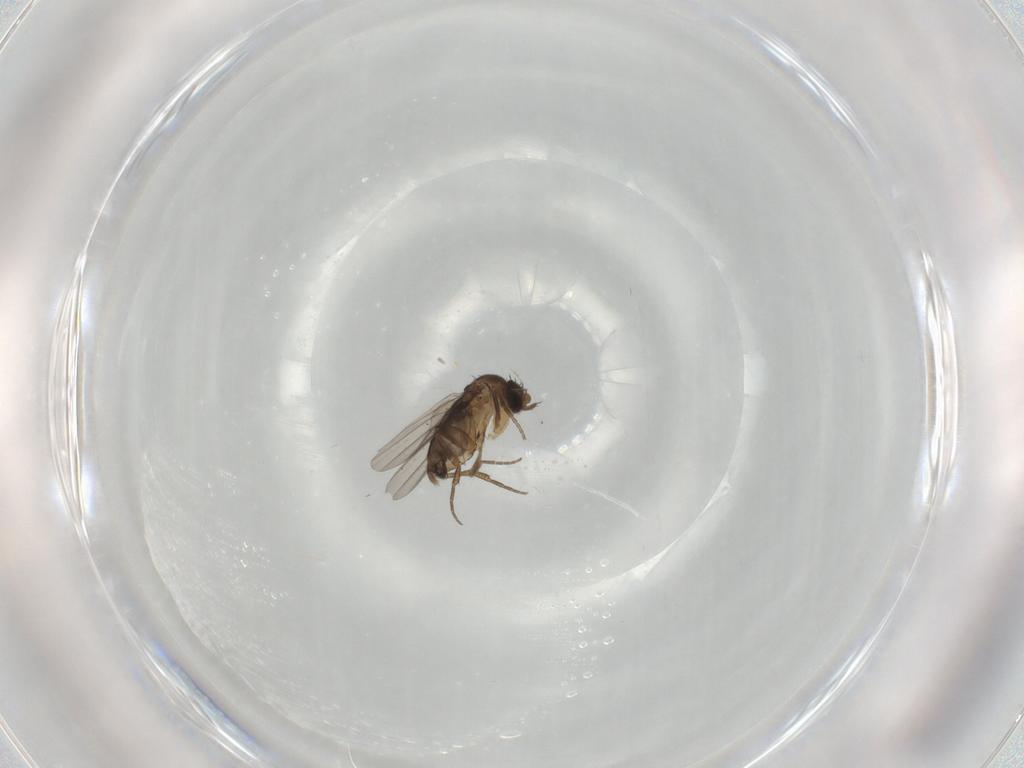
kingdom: Animalia
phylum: Arthropoda
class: Insecta
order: Diptera
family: Phoridae
